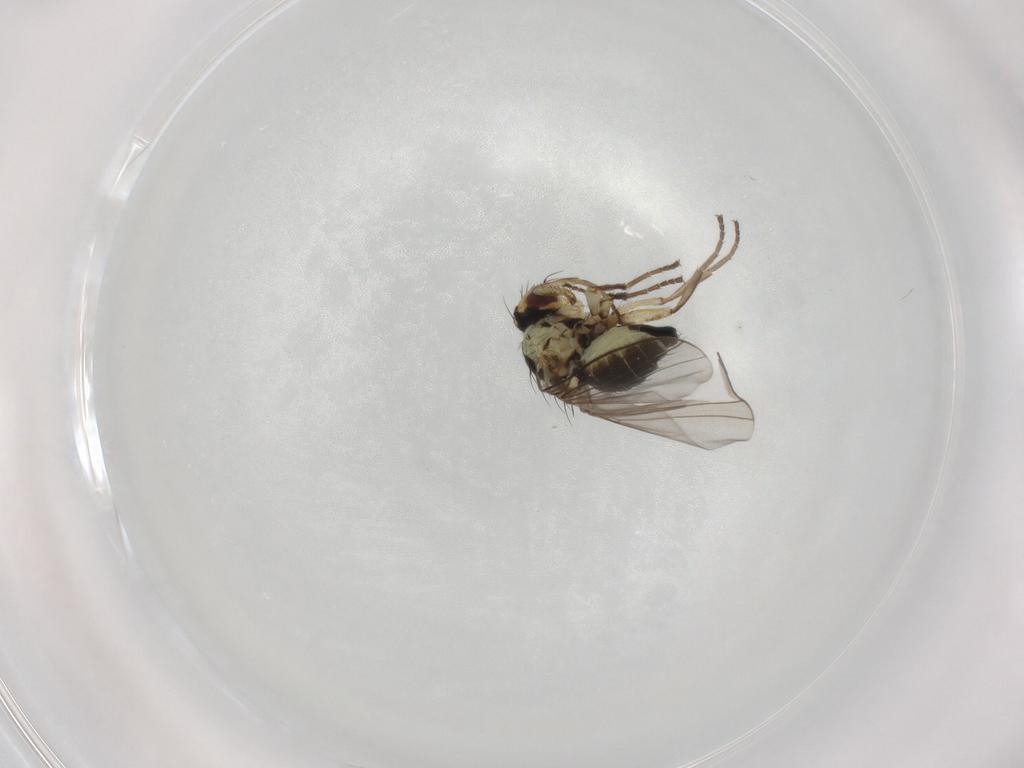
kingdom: Animalia
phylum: Arthropoda
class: Insecta
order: Diptera
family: Agromyzidae
